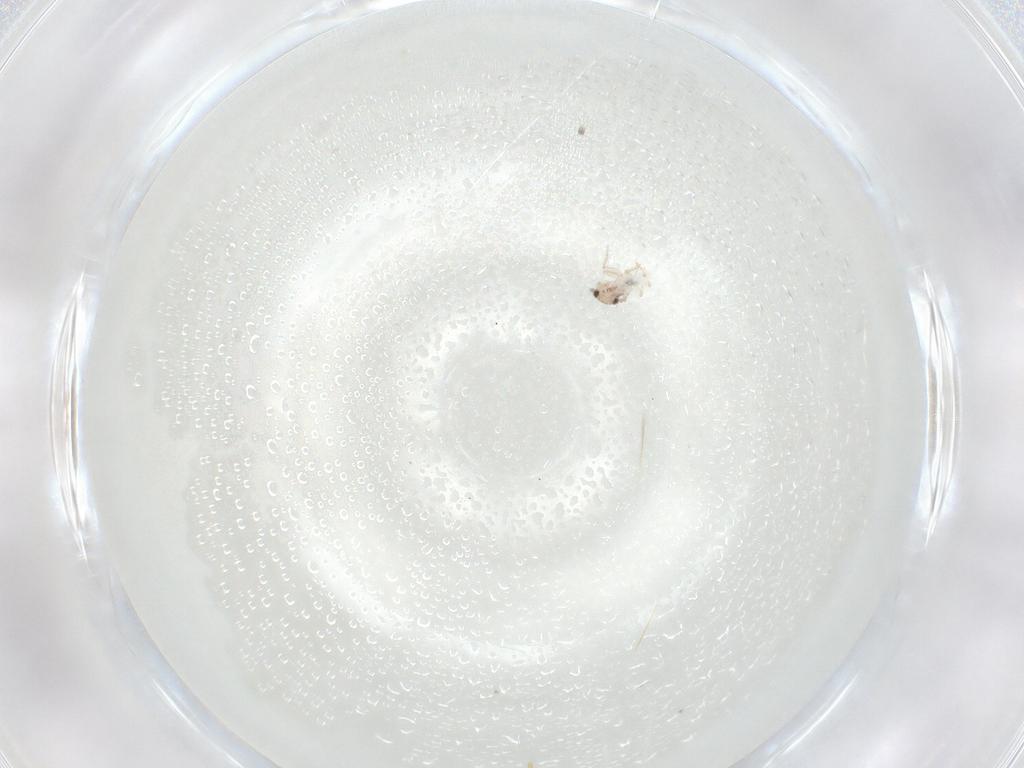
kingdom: Animalia
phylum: Arthropoda
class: Insecta
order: Psocodea
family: Lepidopsocidae
